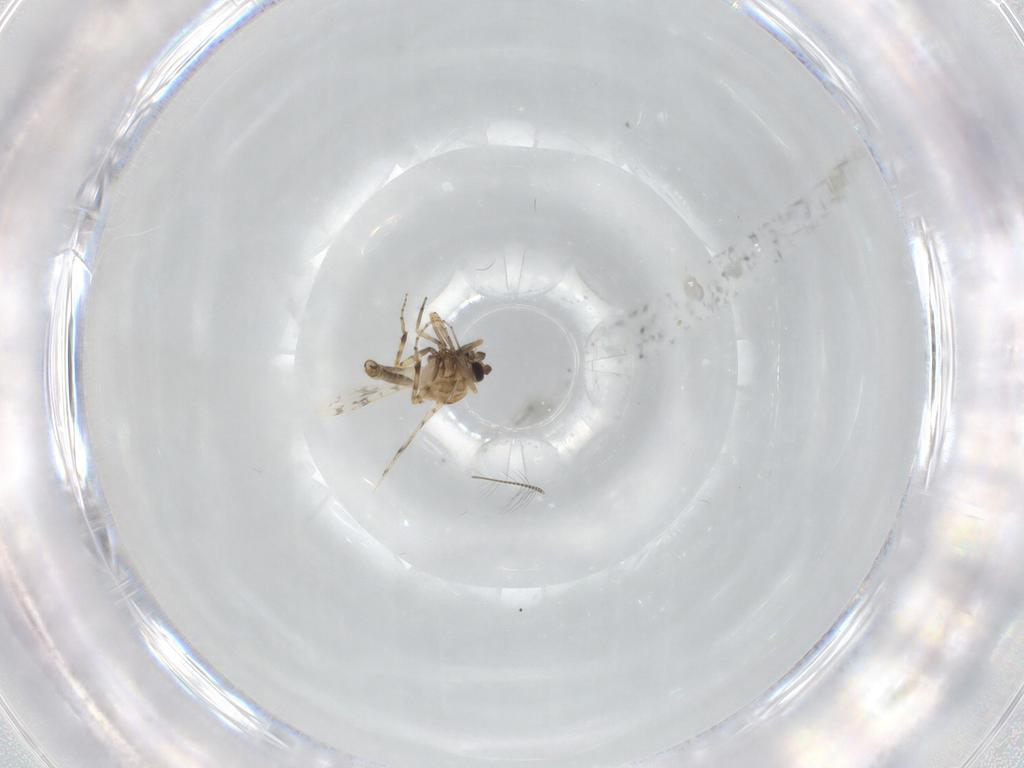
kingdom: Animalia
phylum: Arthropoda
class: Insecta
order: Diptera
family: Ceratopogonidae
